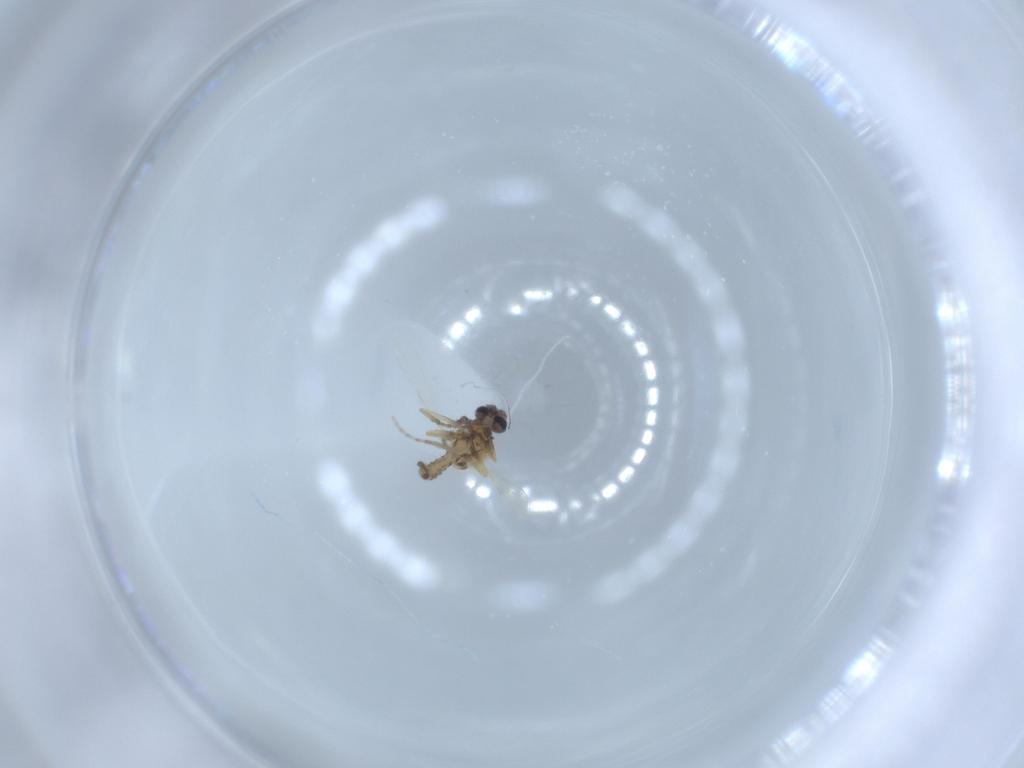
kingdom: Animalia
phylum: Arthropoda
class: Insecta
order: Diptera
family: Ceratopogonidae
